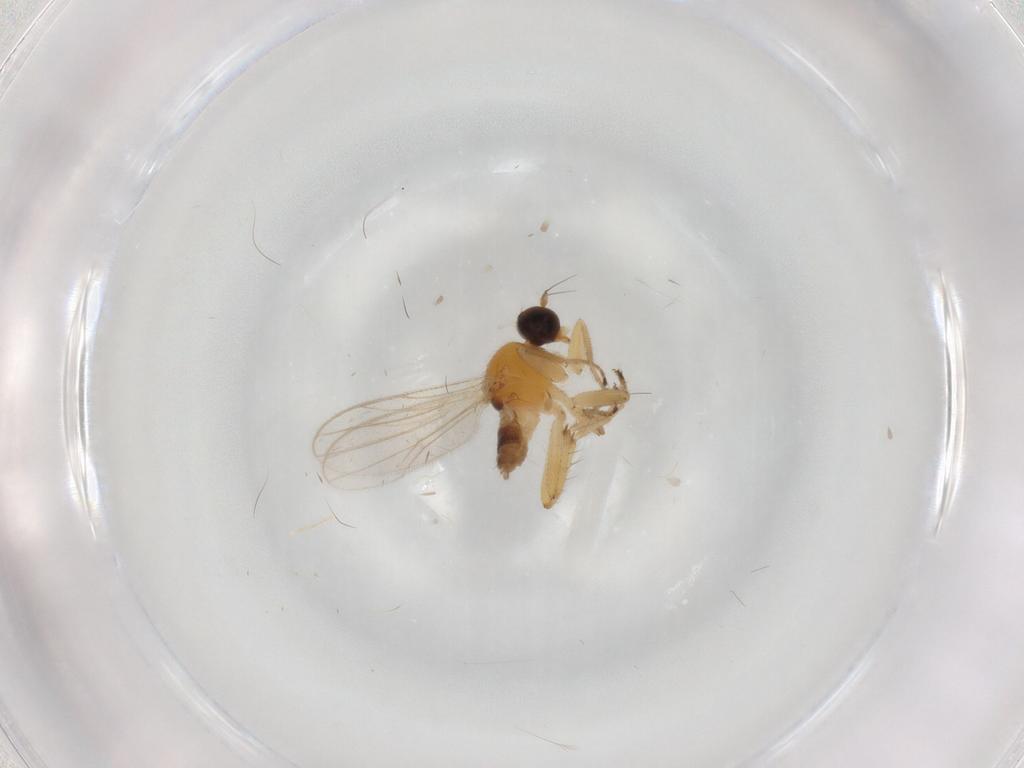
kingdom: Animalia
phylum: Arthropoda
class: Insecta
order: Diptera
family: Hybotidae
